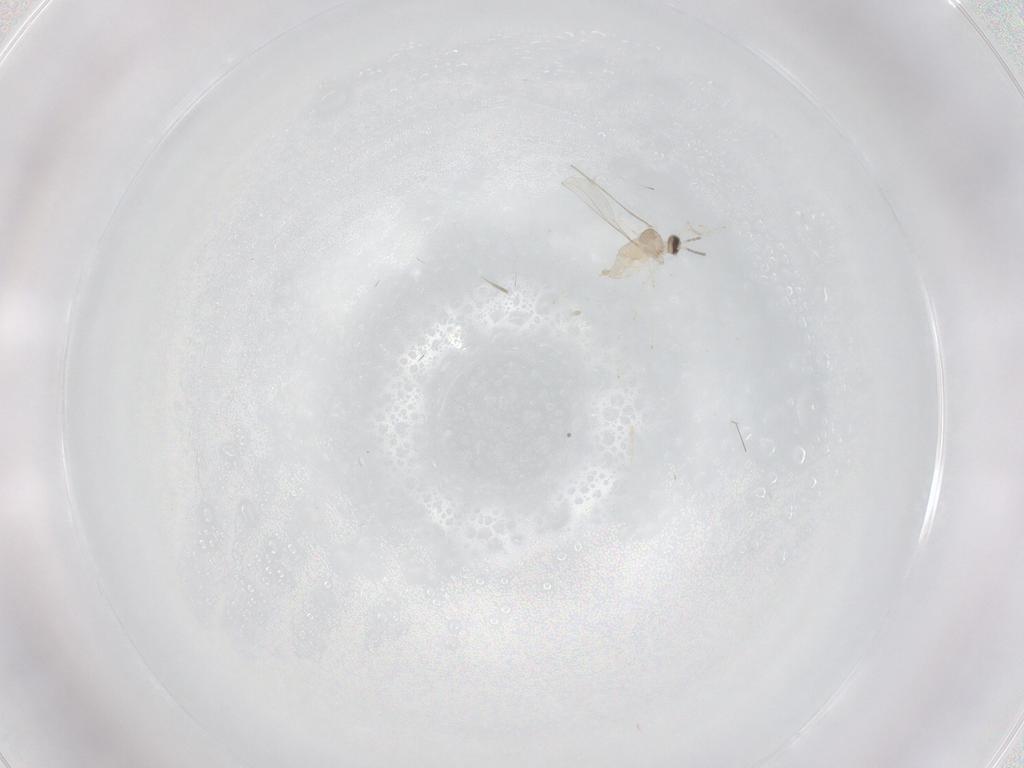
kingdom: Animalia
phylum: Arthropoda
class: Insecta
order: Diptera
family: Cecidomyiidae
